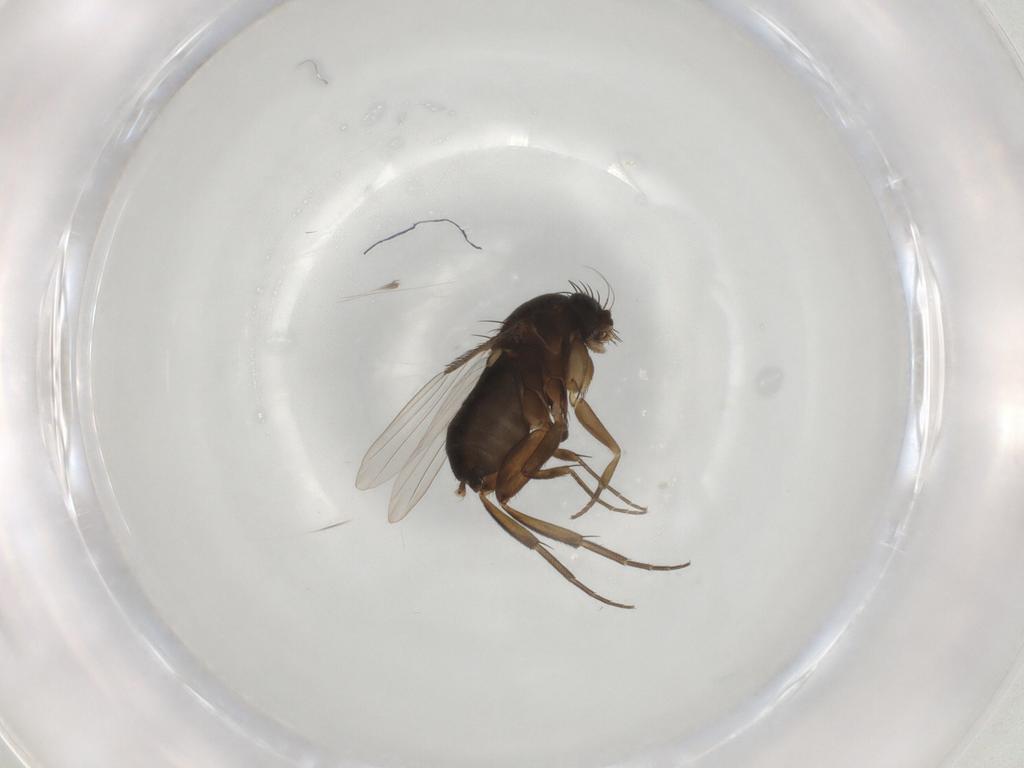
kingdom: Animalia
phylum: Arthropoda
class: Insecta
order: Diptera
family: Phoridae
